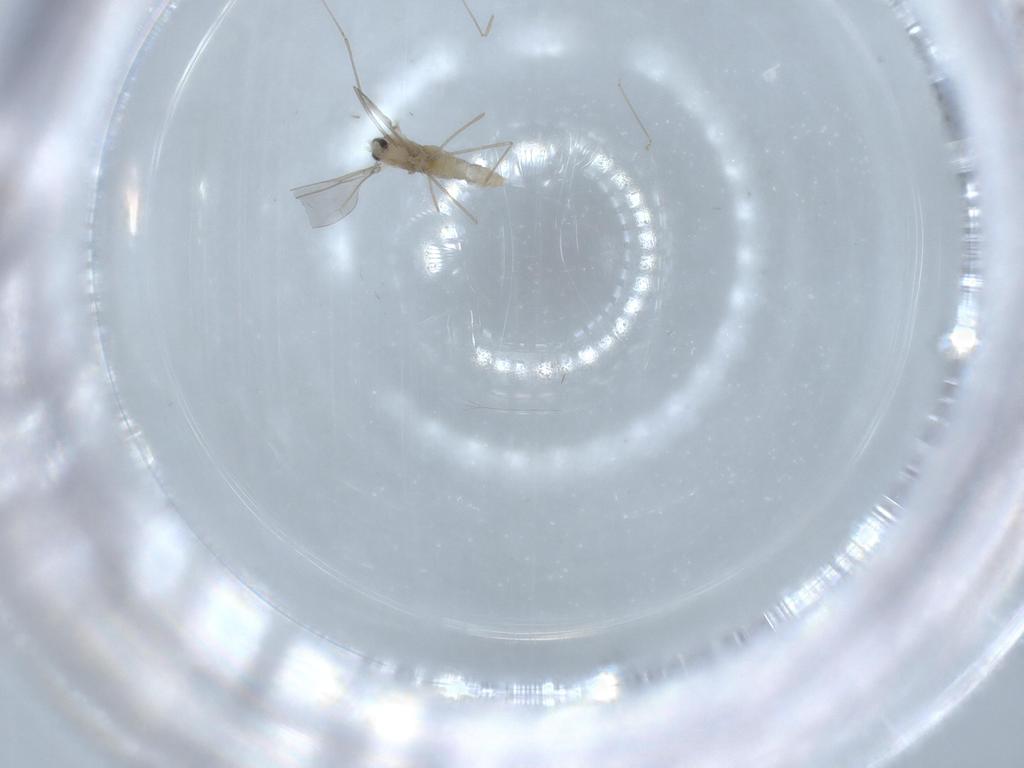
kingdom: Animalia
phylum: Arthropoda
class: Insecta
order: Diptera
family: Cecidomyiidae
